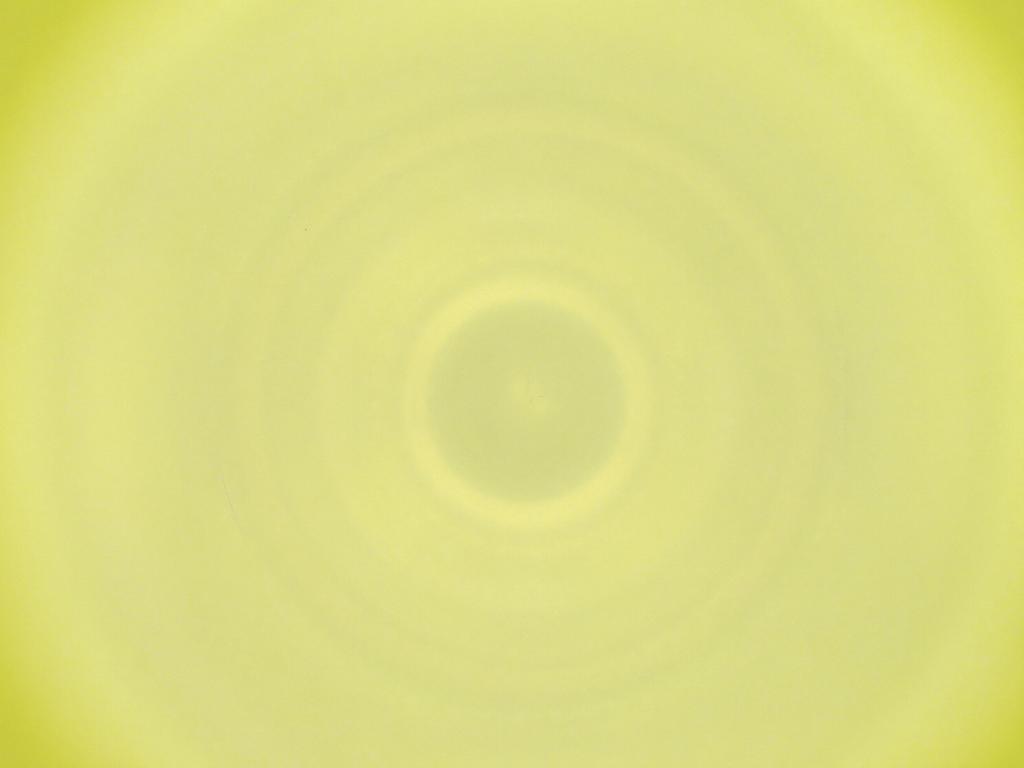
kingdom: Animalia
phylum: Arthropoda
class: Insecta
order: Diptera
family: Cecidomyiidae
